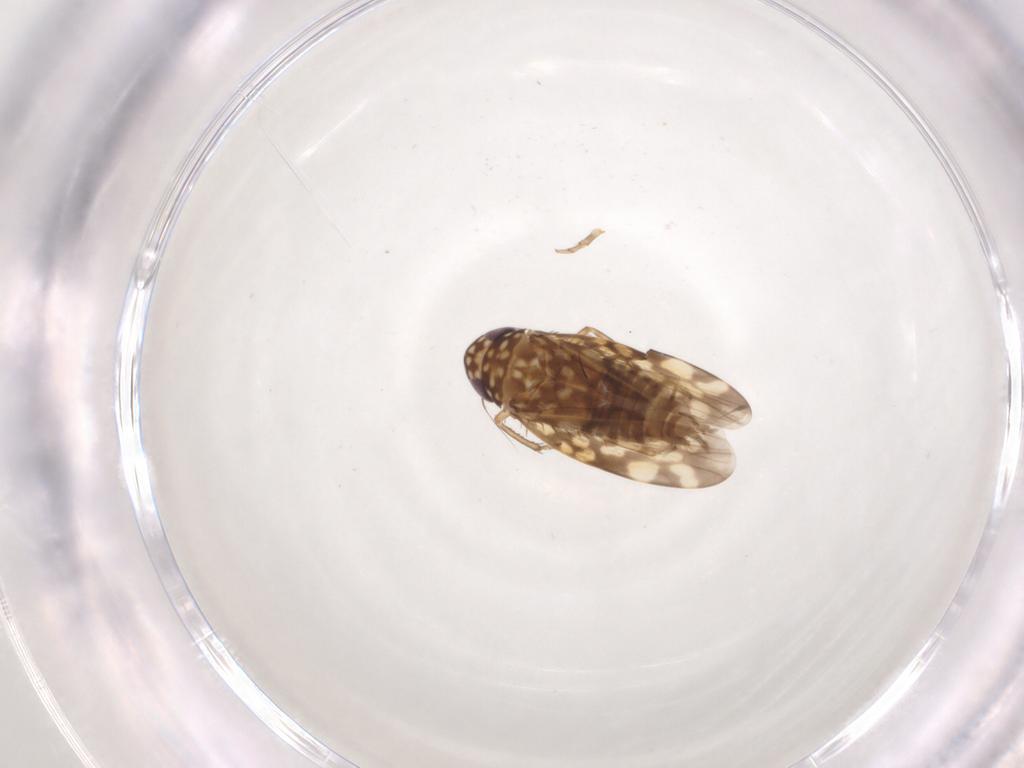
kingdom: Animalia
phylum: Arthropoda
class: Insecta
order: Hemiptera
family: Cicadellidae
